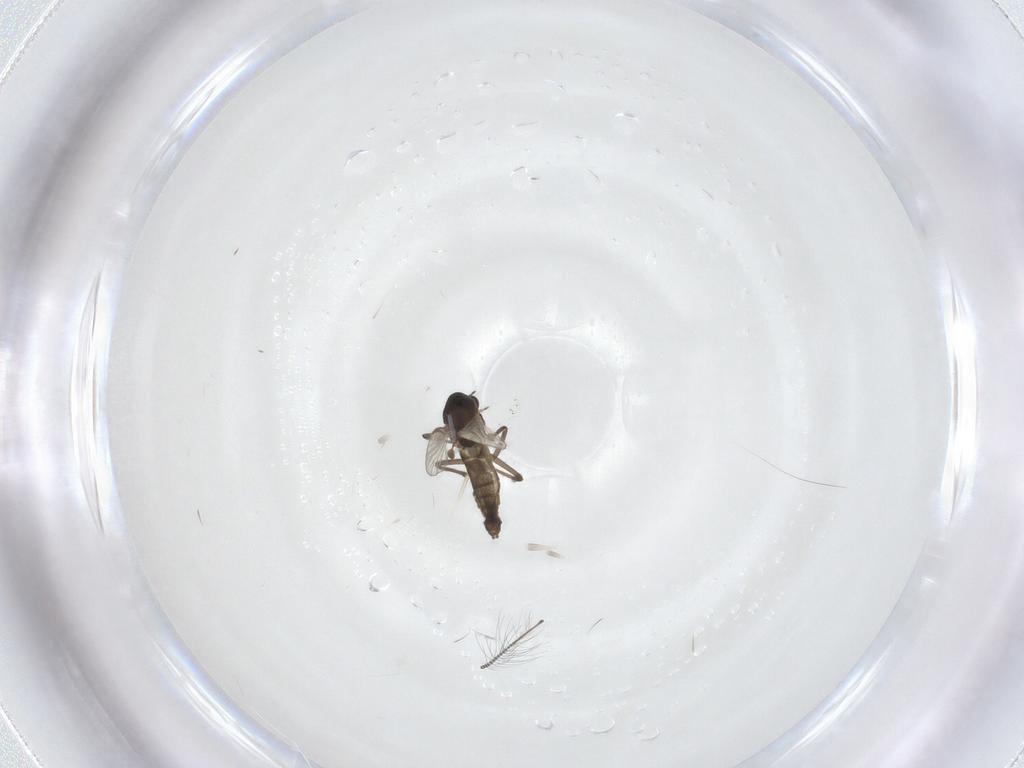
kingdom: Animalia
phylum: Arthropoda
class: Insecta
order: Diptera
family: Chironomidae
